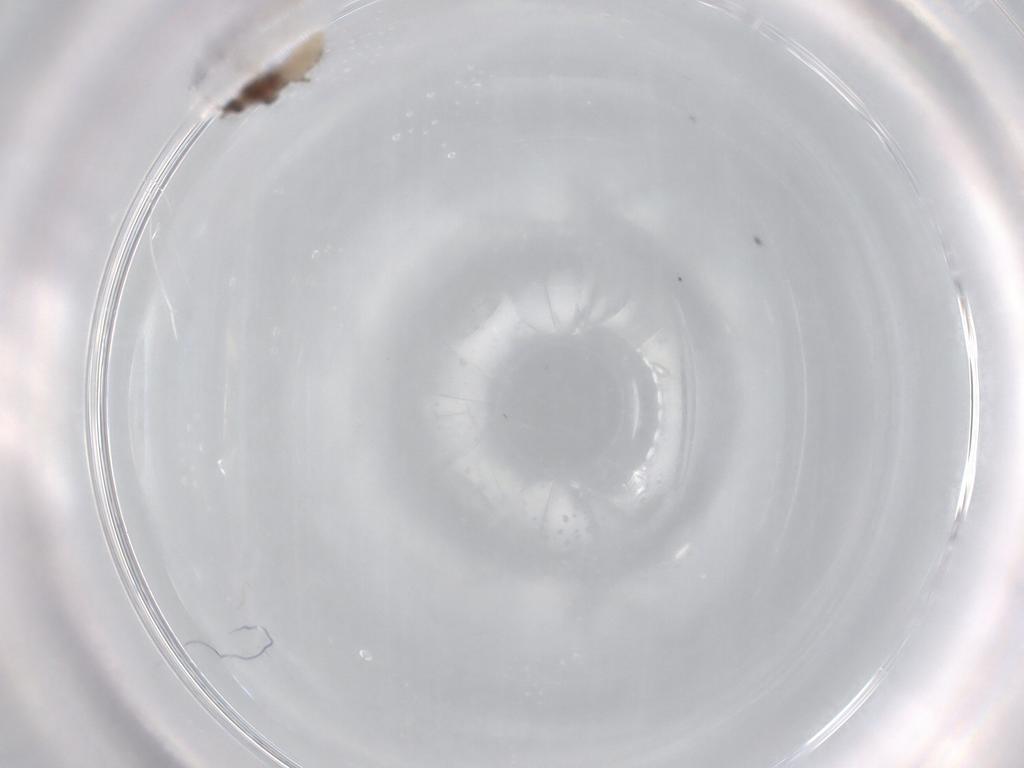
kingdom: Animalia
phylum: Arthropoda
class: Insecta
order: Hemiptera
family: Aphididae
